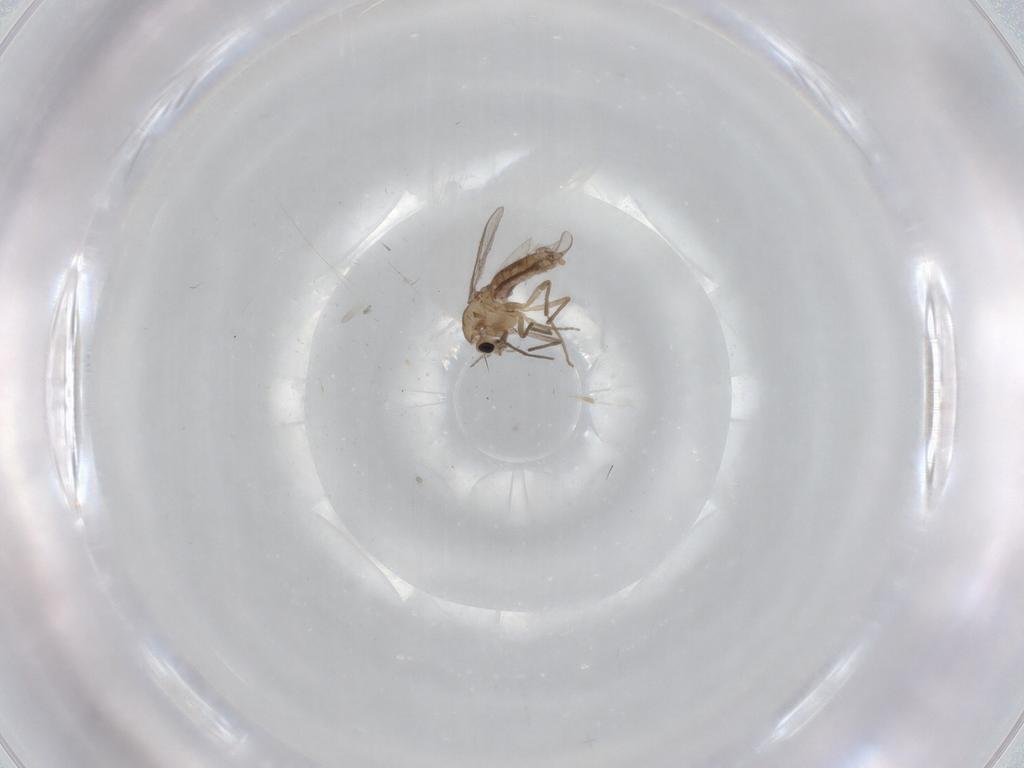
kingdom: Animalia
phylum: Arthropoda
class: Insecta
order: Diptera
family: Chironomidae
